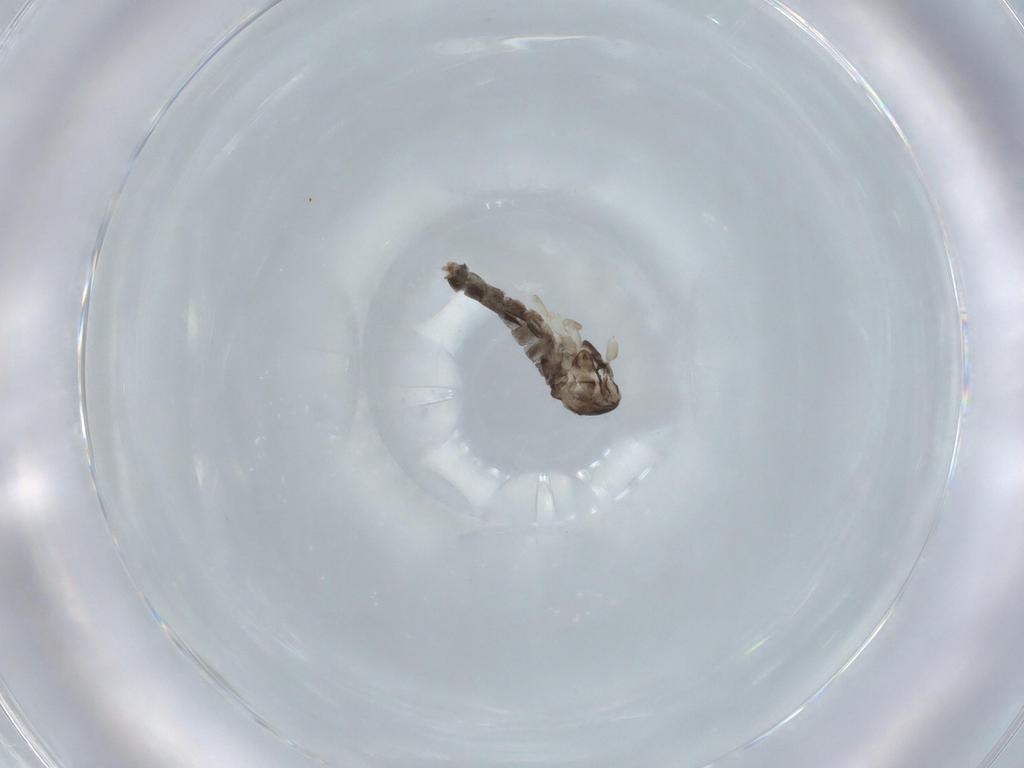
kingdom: Animalia
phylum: Arthropoda
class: Insecta
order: Diptera
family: Cecidomyiidae
